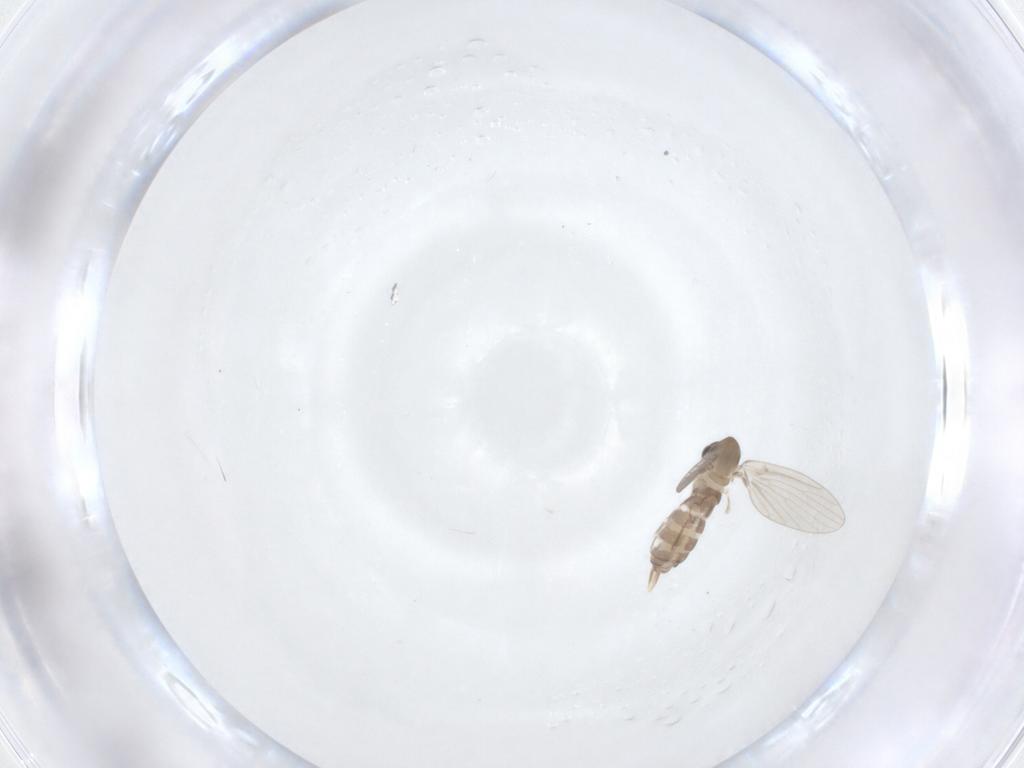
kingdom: Animalia
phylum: Arthropoda
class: Insecta
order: Diptera
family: Psychodidae
